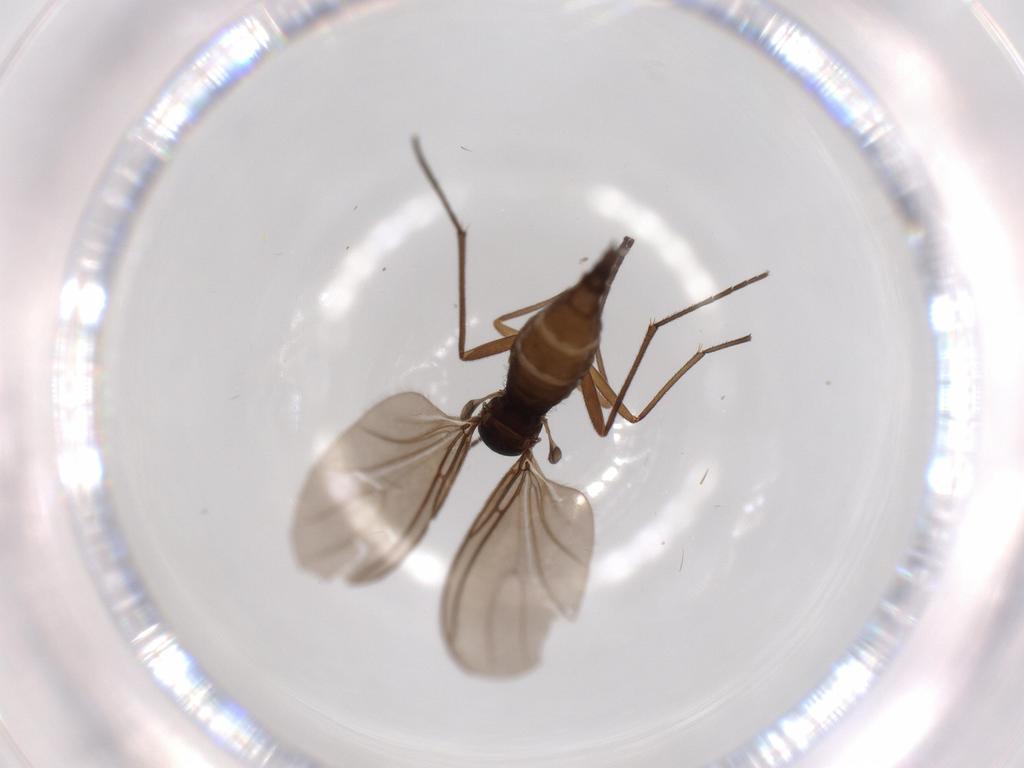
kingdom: Animalia
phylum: Arthropoda
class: Insecta
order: Diptera
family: Sciaridae
